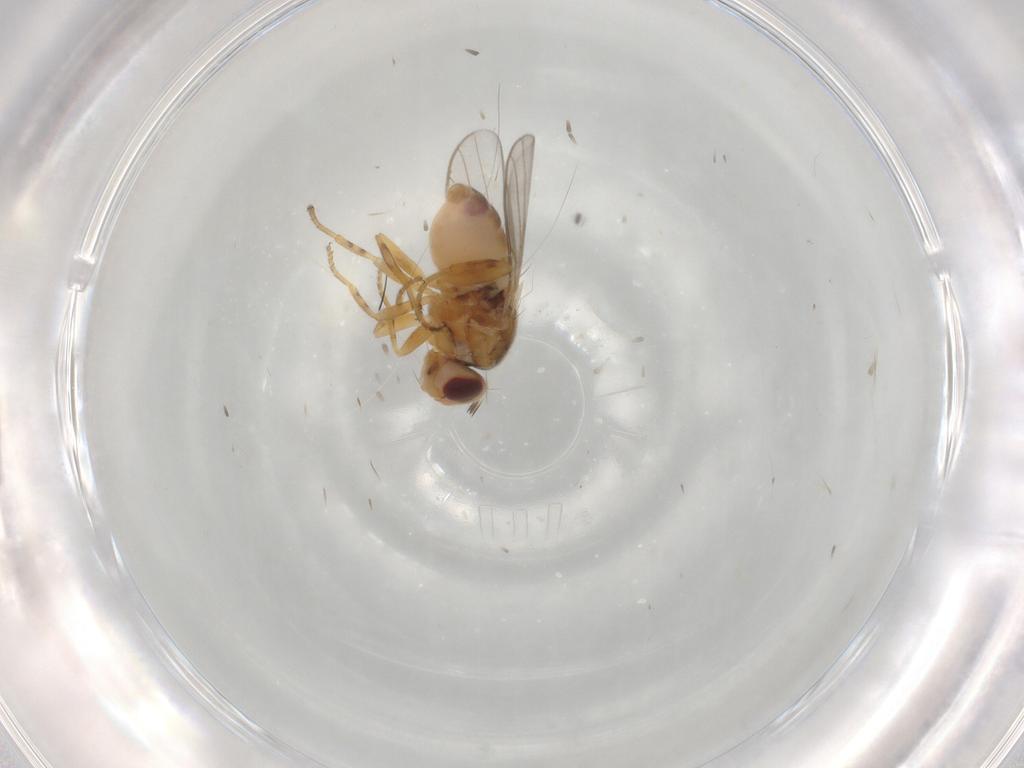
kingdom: Animalia
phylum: Arthropoda
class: Insecta
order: Diptera
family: Chloropidae
